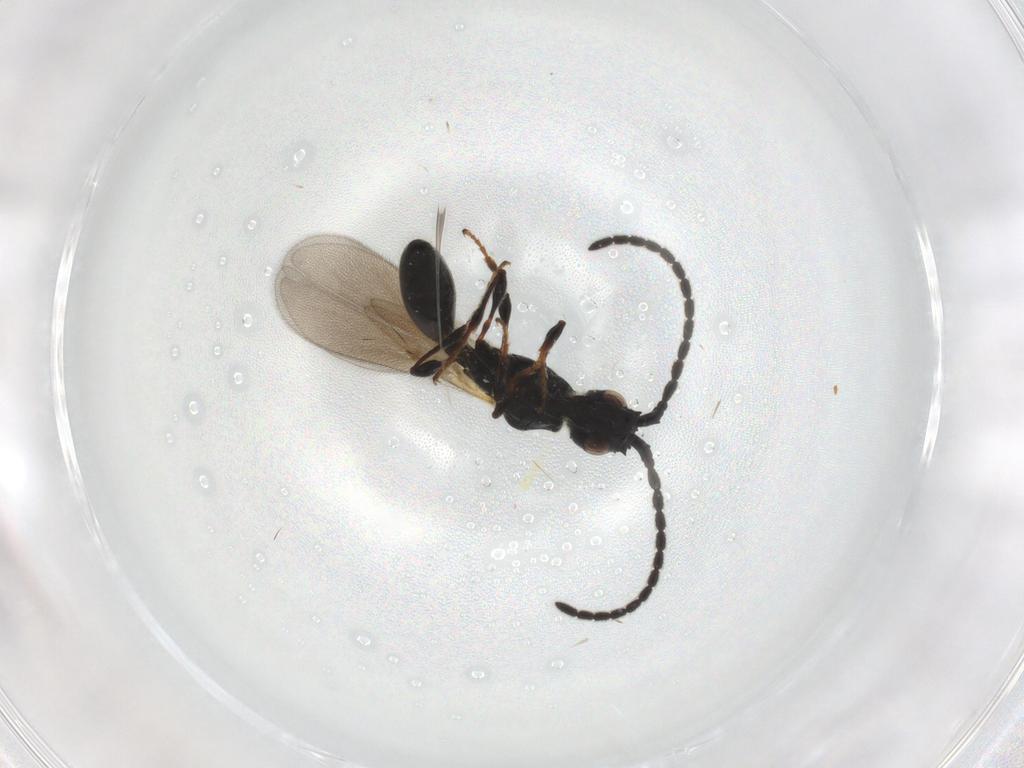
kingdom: Animalia
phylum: Arthropoda
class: Insecta
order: Hymenoptera
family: Diapriidae
